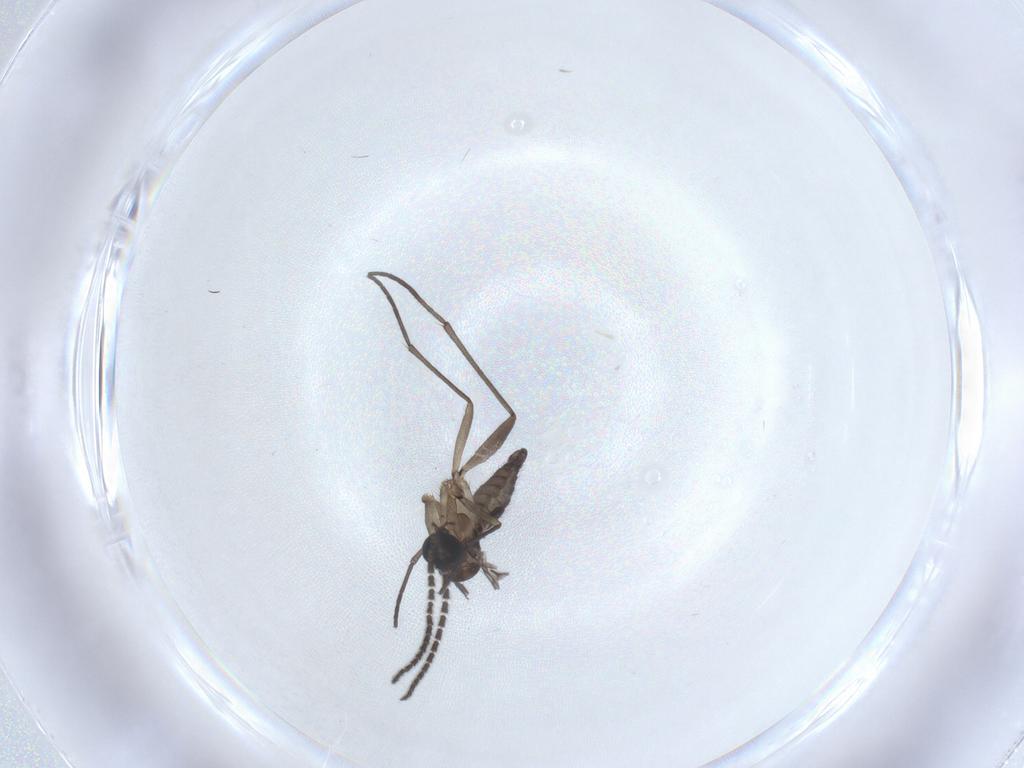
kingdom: Animalia
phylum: Arthropoda
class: Insecta
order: Diptera
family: Sciaridae
